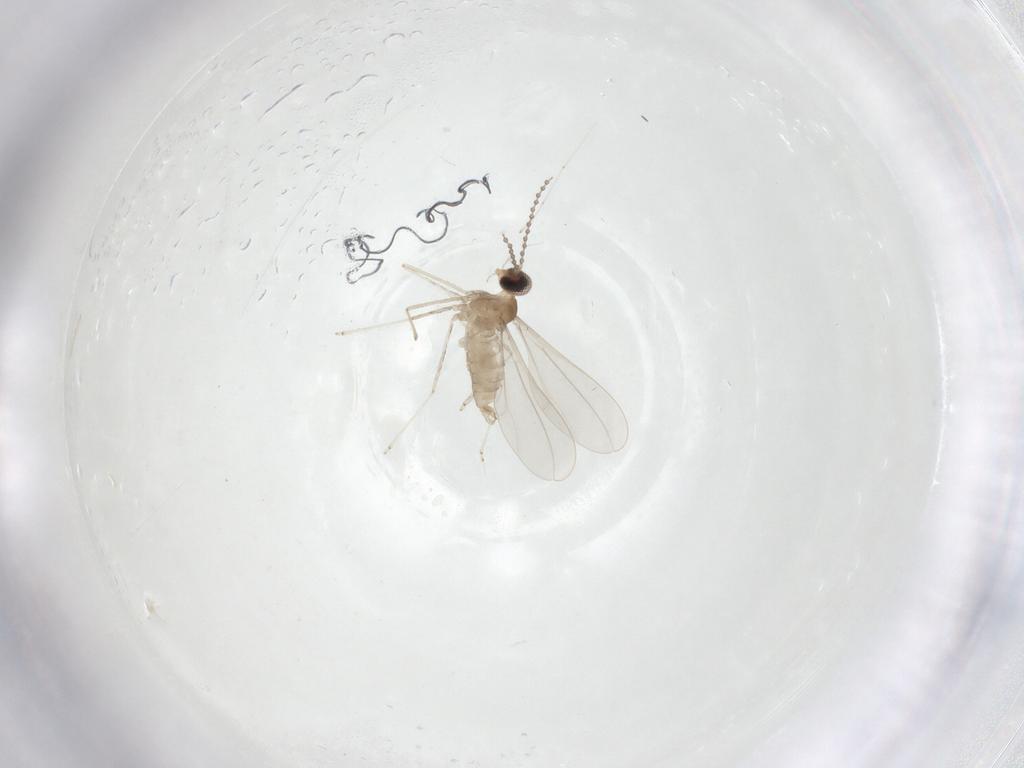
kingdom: Animalia
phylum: Arthropoda
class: Insecta
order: Diptera
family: Cecidomyiidae
